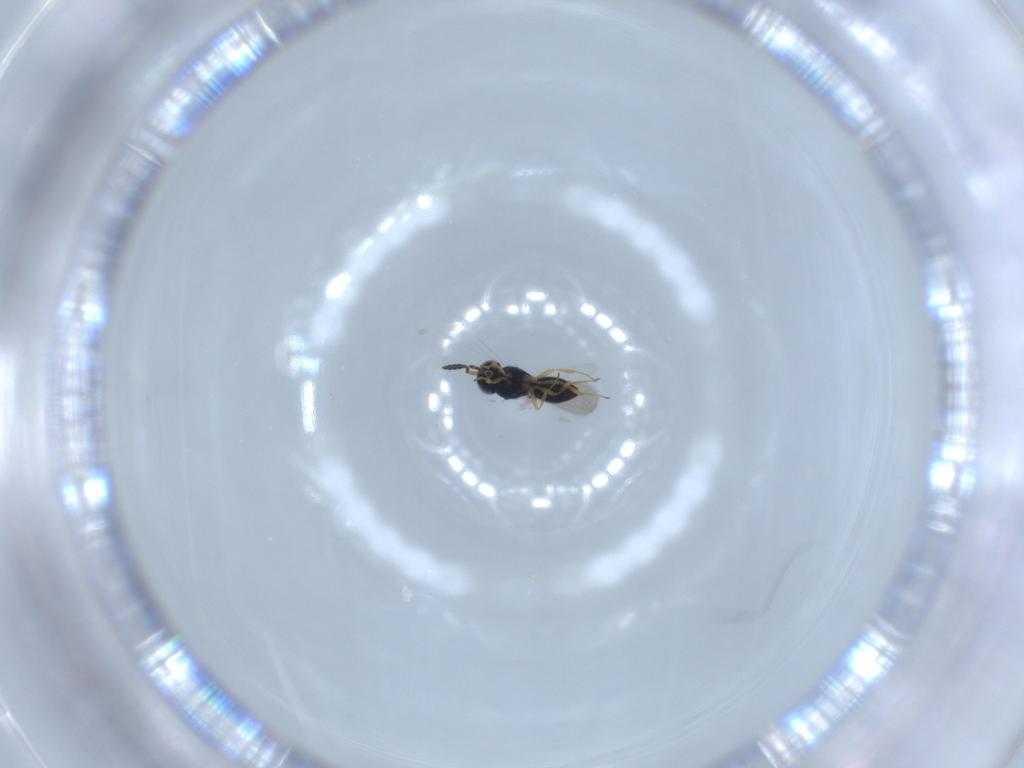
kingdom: Animalia
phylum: Arthropoda
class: Insecta
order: Hymenoptera
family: Scelionidae
